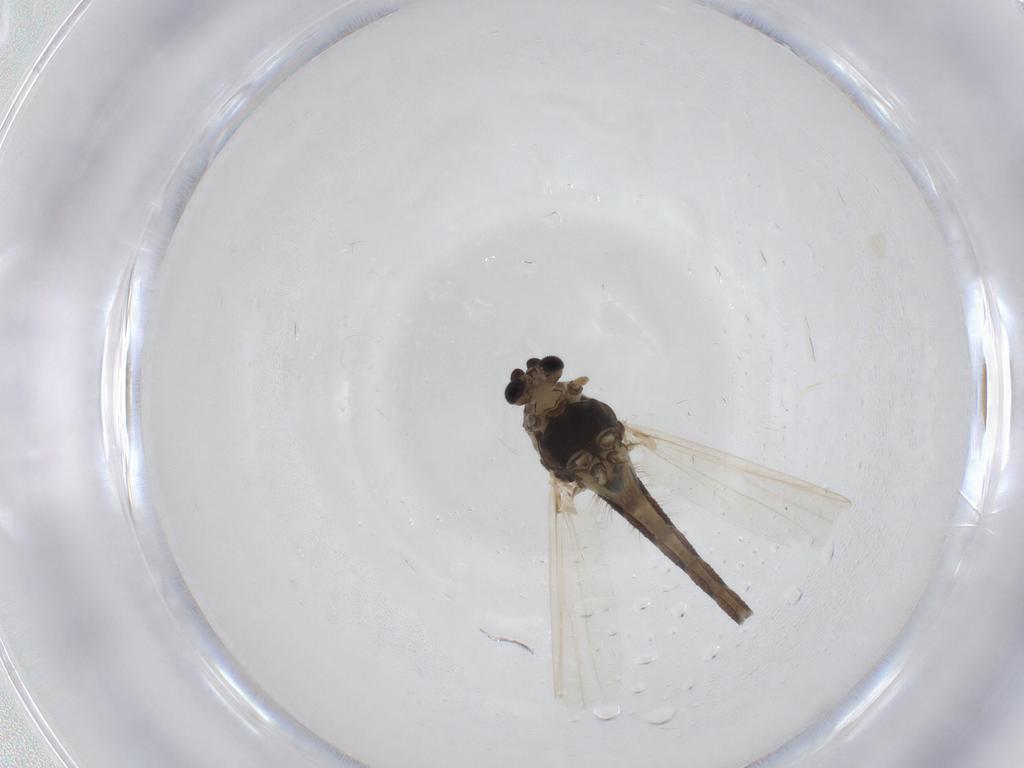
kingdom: Animalia
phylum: Arthropoda
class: Insecta
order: Diptera
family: Chironomidae
